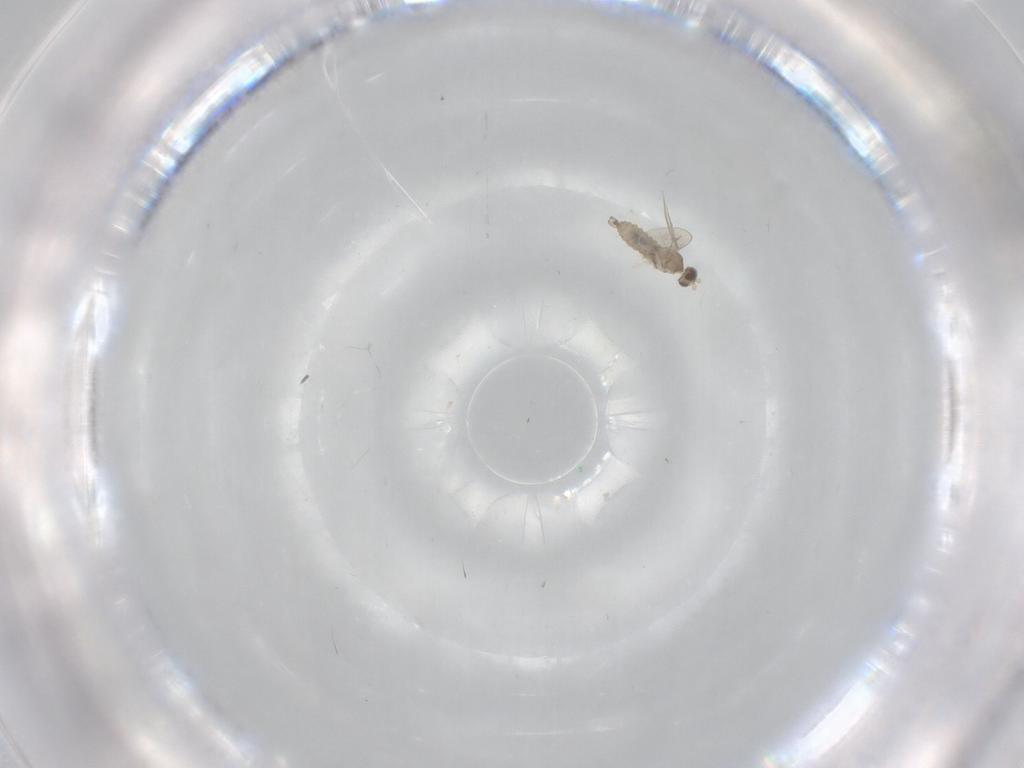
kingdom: Animalia
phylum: Arthropoda
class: Insecta
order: Diptera
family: Cecidomyiidae
